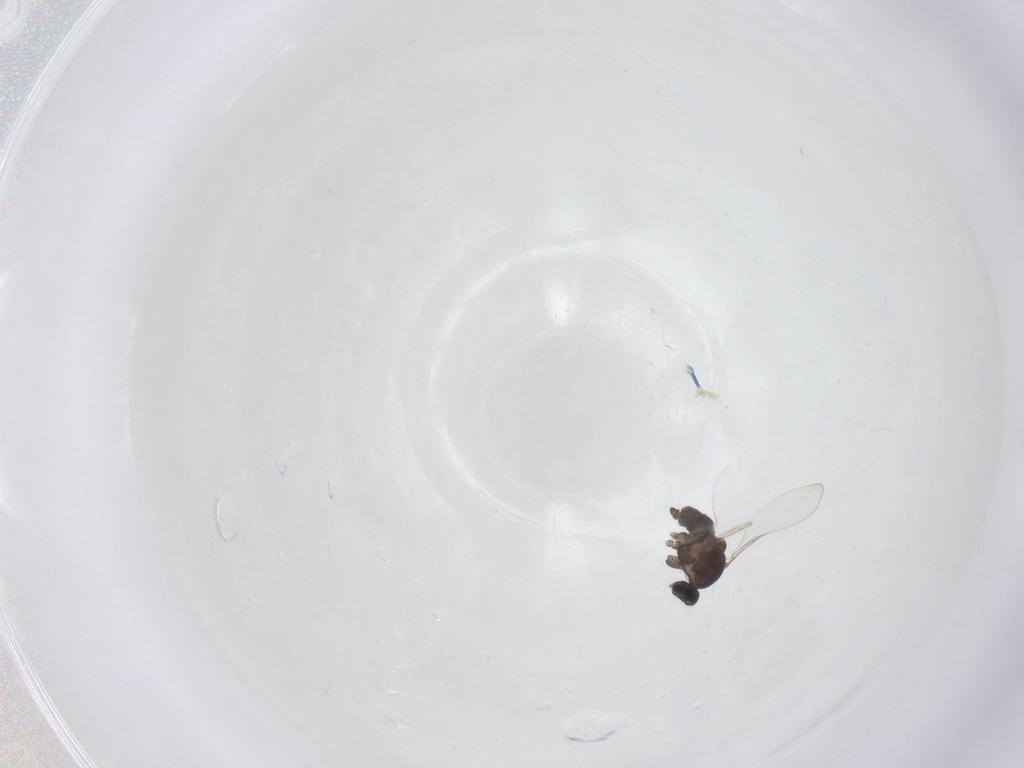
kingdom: Animalia
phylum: Arthropoda
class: Insecta
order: Diptera
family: Cecidomyiidae
